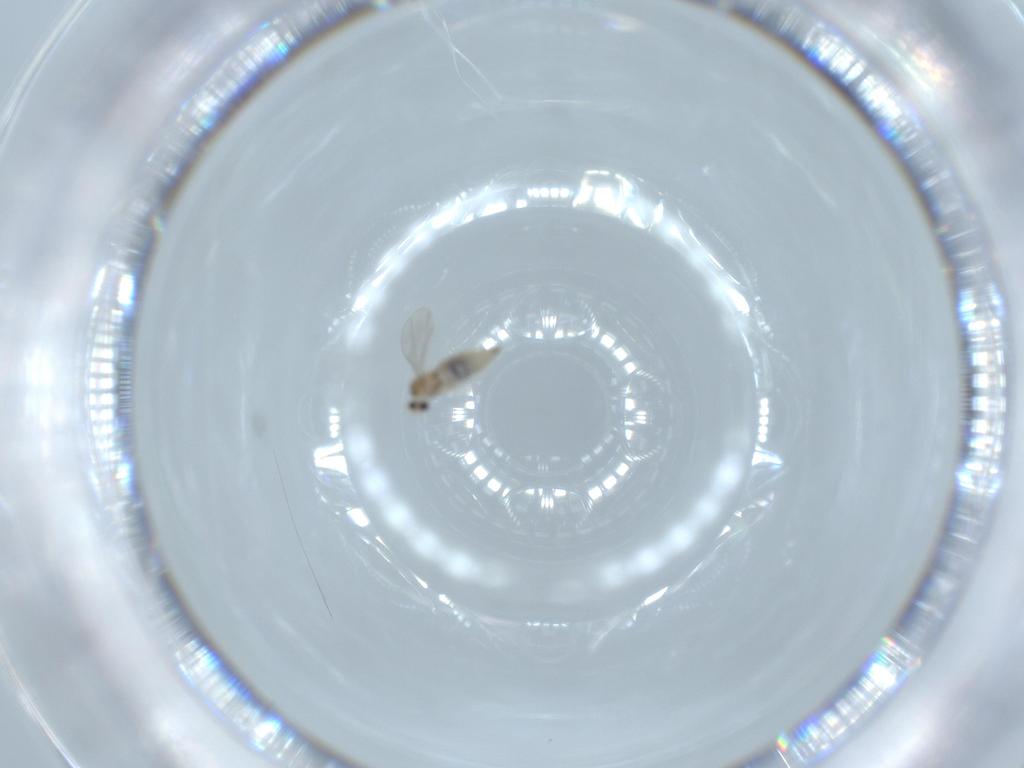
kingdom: Animalia
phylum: Arthropoda
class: Insecta
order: Diptera
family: Cecidomyiidae
